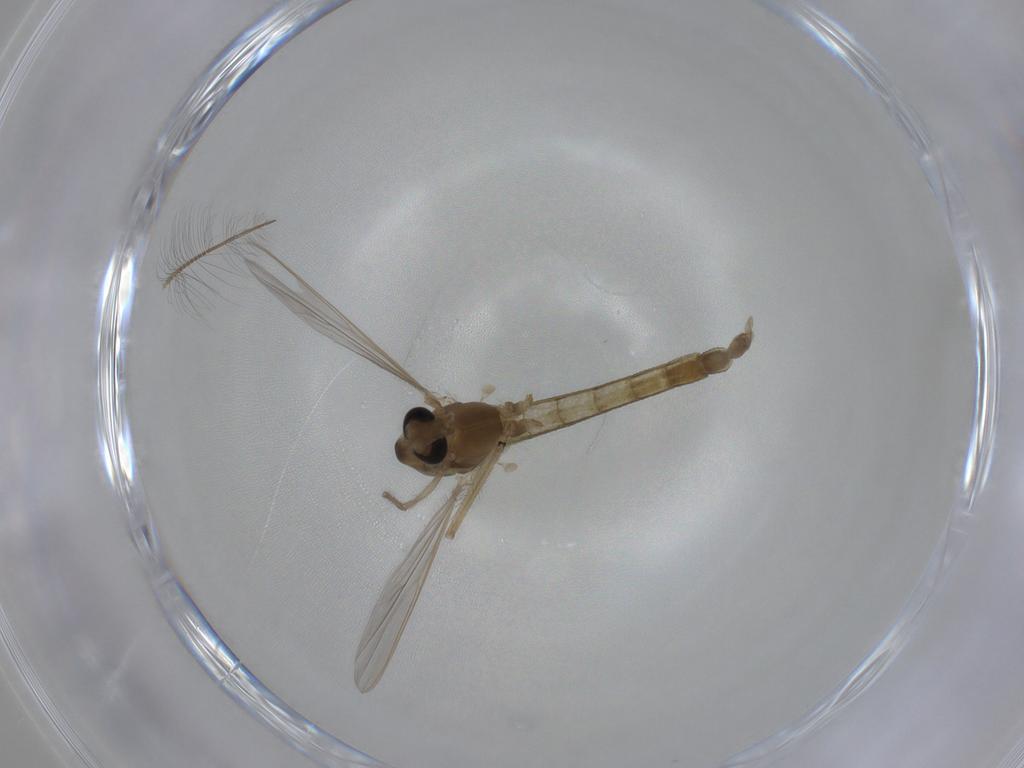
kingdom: Animalia
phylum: Arthropoda
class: Insecta
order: Diptera
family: Chironomidae
